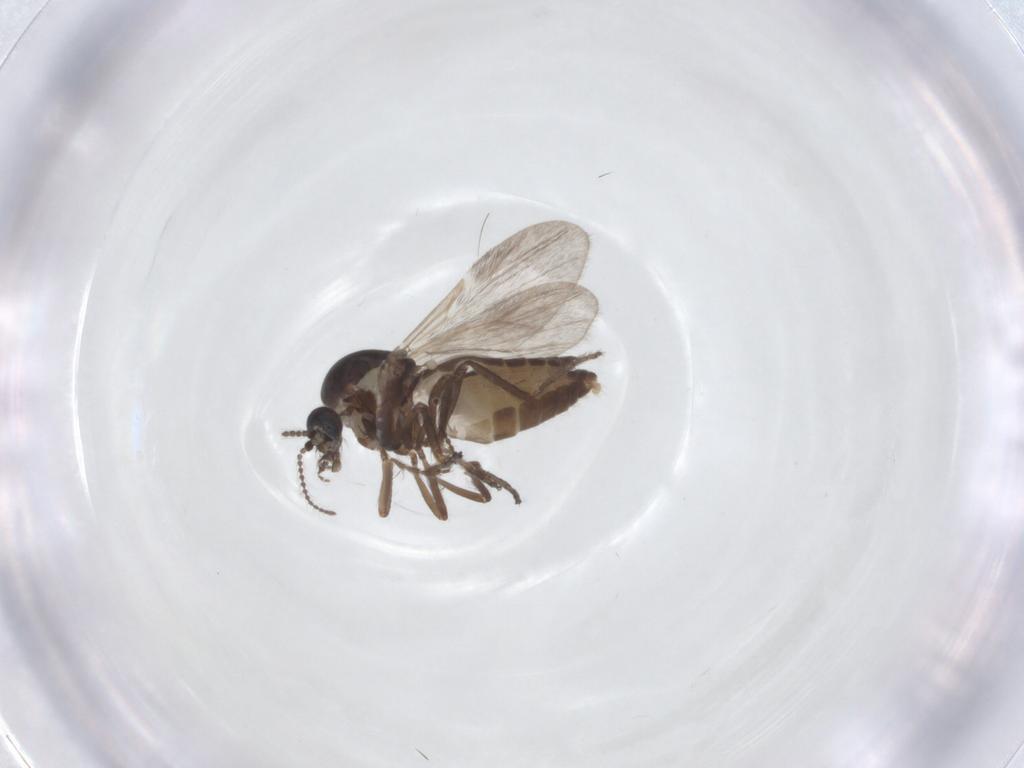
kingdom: Animalia
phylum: Arthropoda
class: Insecta
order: Diptera
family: Ceratopogonidae
